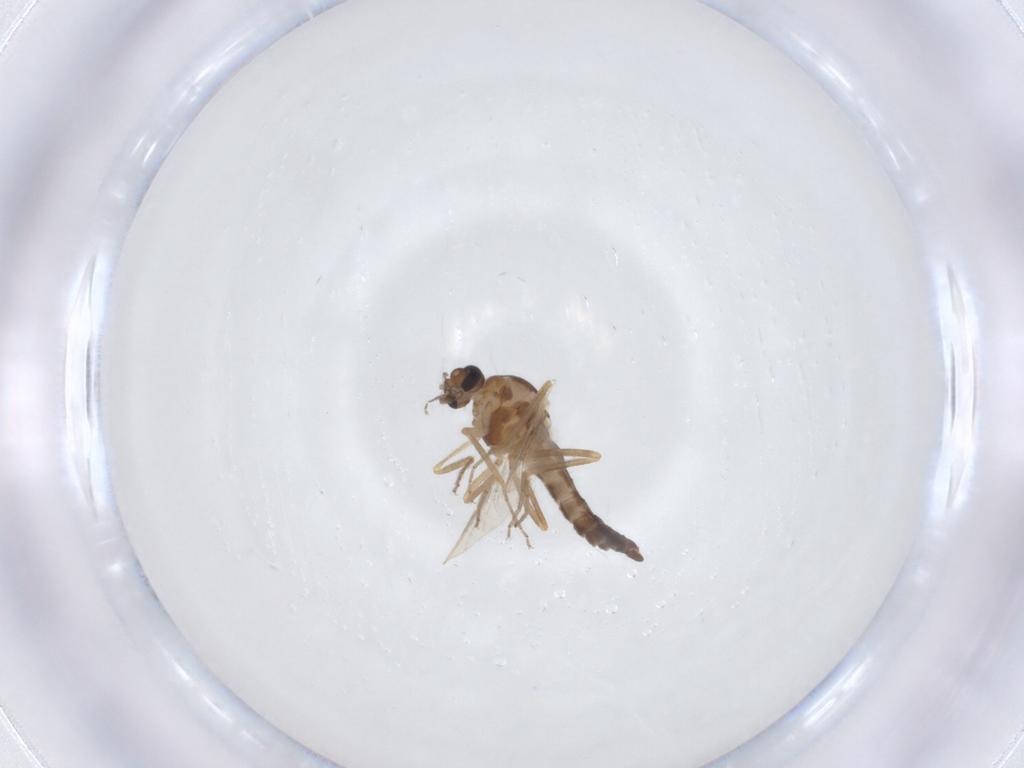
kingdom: Animalia
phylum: Arthropoda
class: Insecta
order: Diptera
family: Ceratopogonidae
